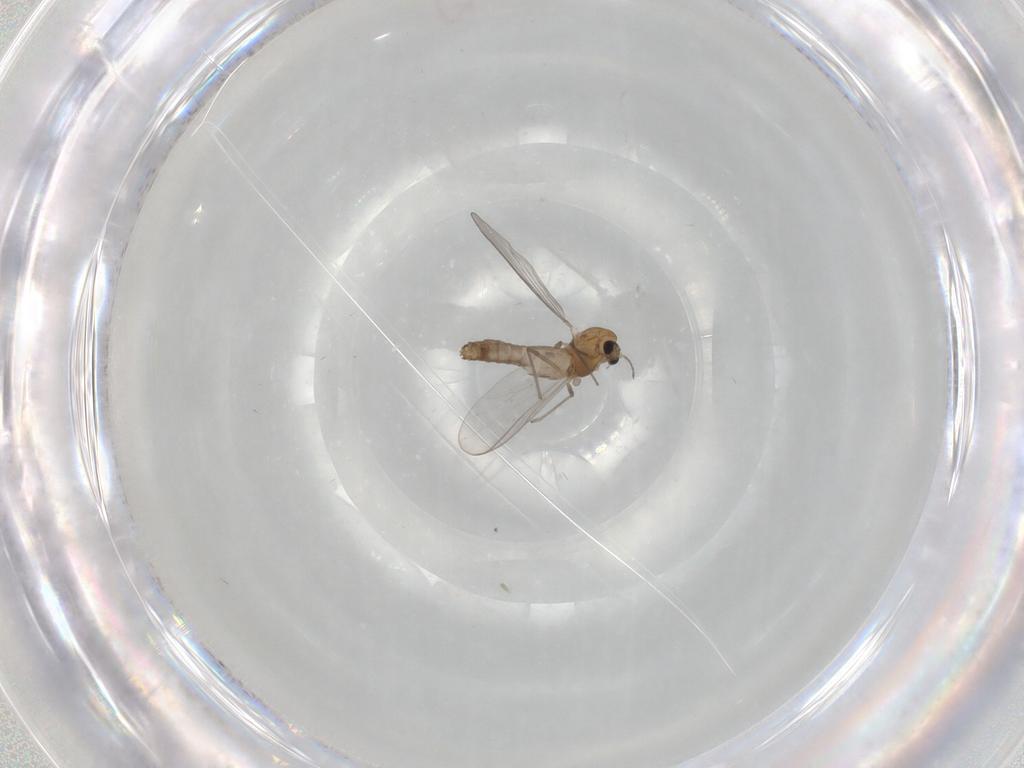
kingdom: Animalia
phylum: Arthropoda
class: Insecta
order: Diptera
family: Chironomidae
